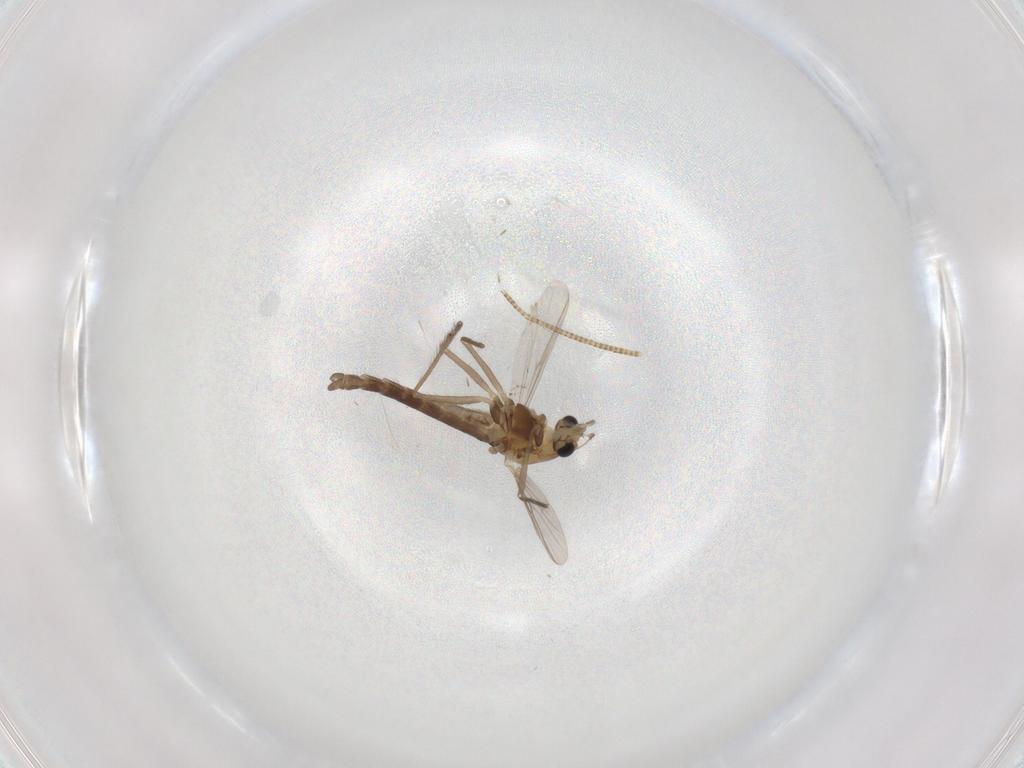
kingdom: Animalia
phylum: Arthropoda
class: Insecta
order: Diptera
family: Chironomidae
